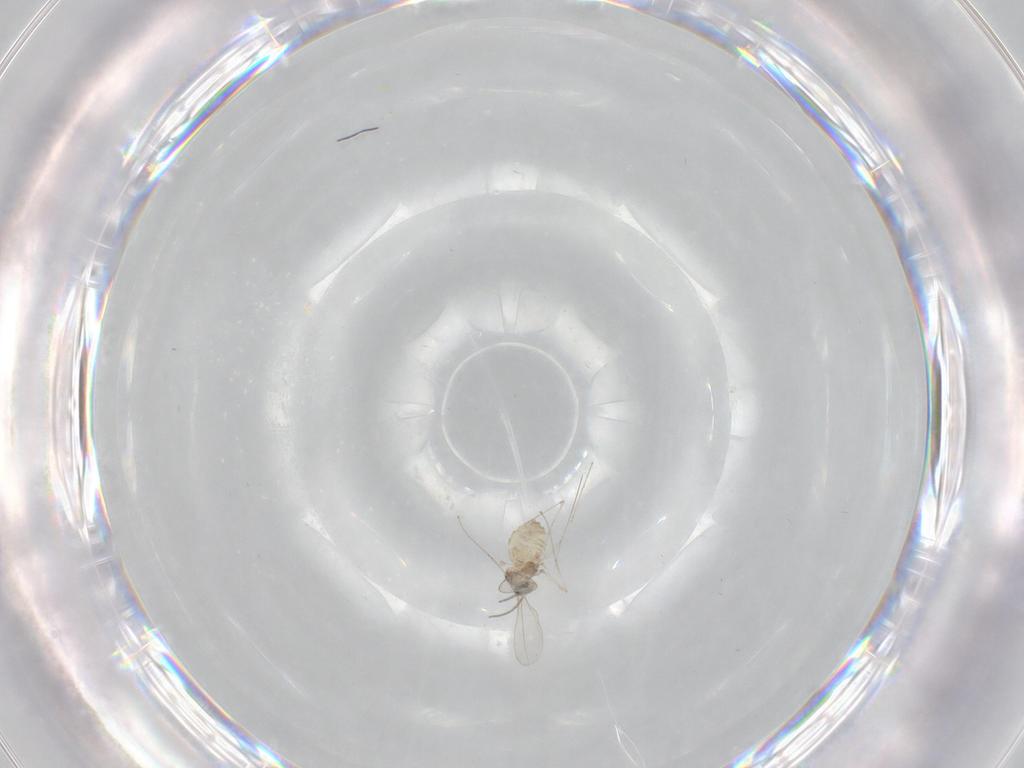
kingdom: Animalia
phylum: Arthropoda
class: Insecta
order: Diptera
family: Cecidomyiidae
